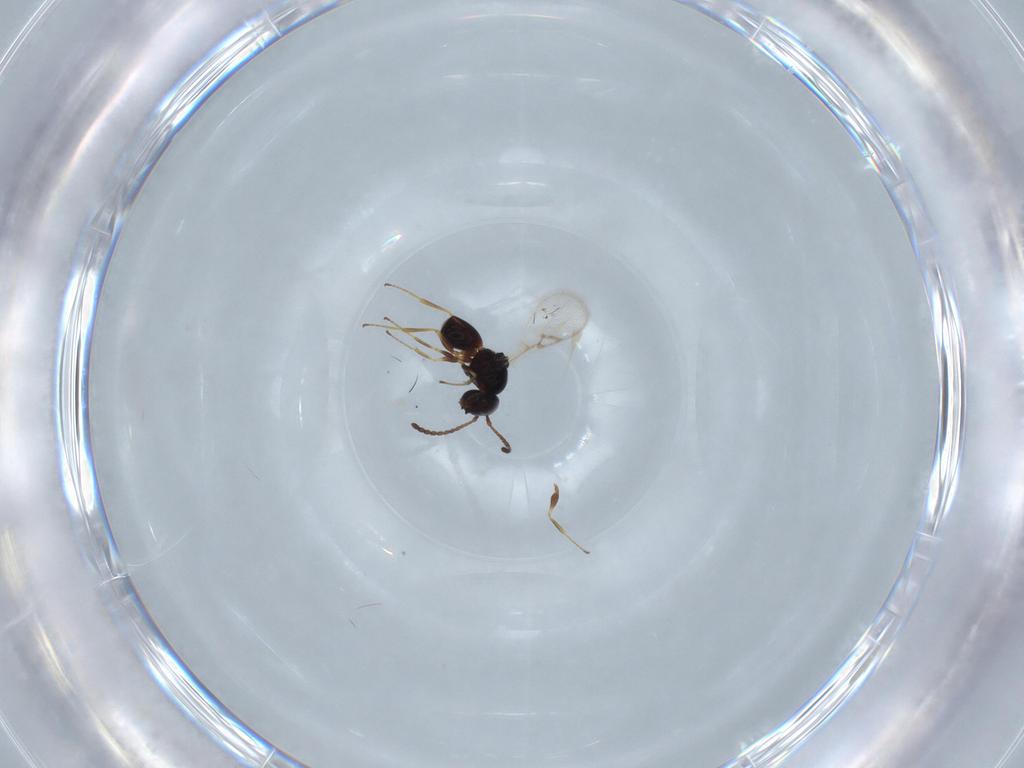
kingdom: Animalia
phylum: Arthropoda
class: Insecta
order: Hymenoptera
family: Figitidae
